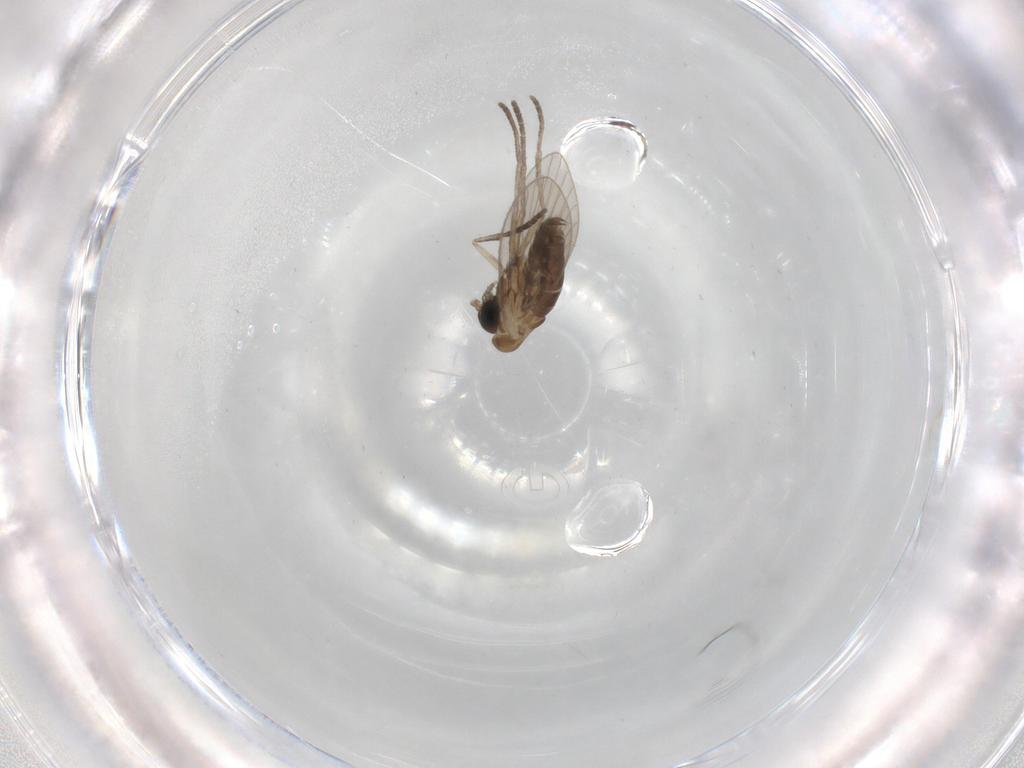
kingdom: Animalia
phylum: Arthropoda
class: Insecta
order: Diptera
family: Psychodidae
